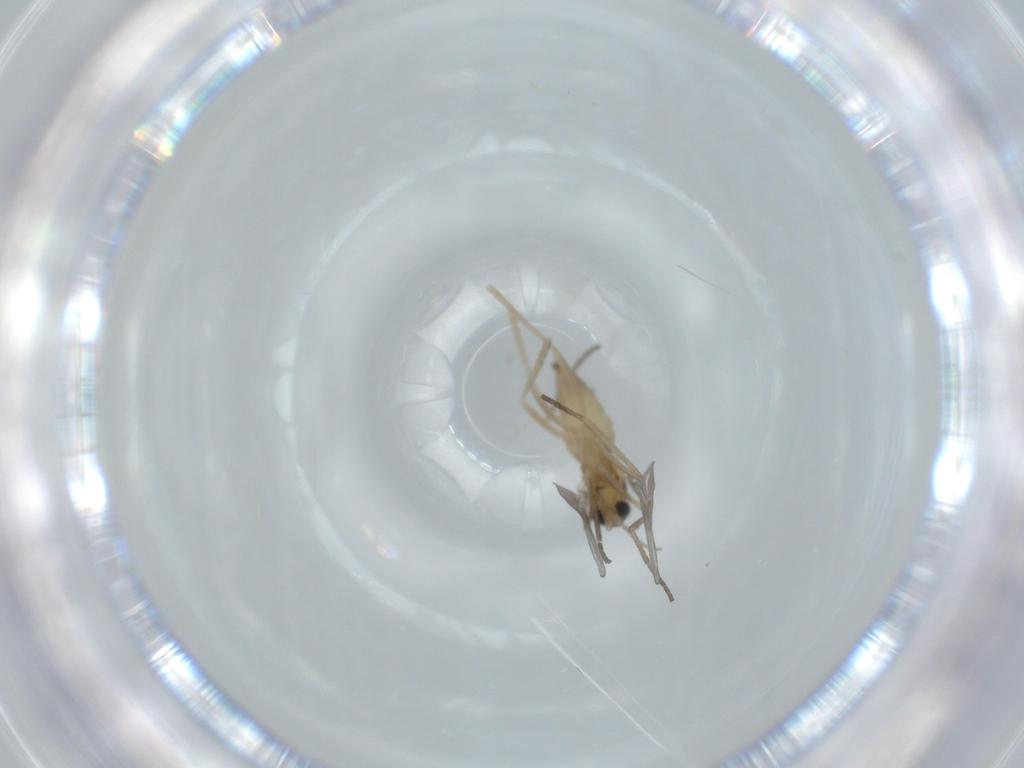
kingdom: Animalia
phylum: Arthropoda
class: Insecta
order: Diptera
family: Cecidomyiidae
